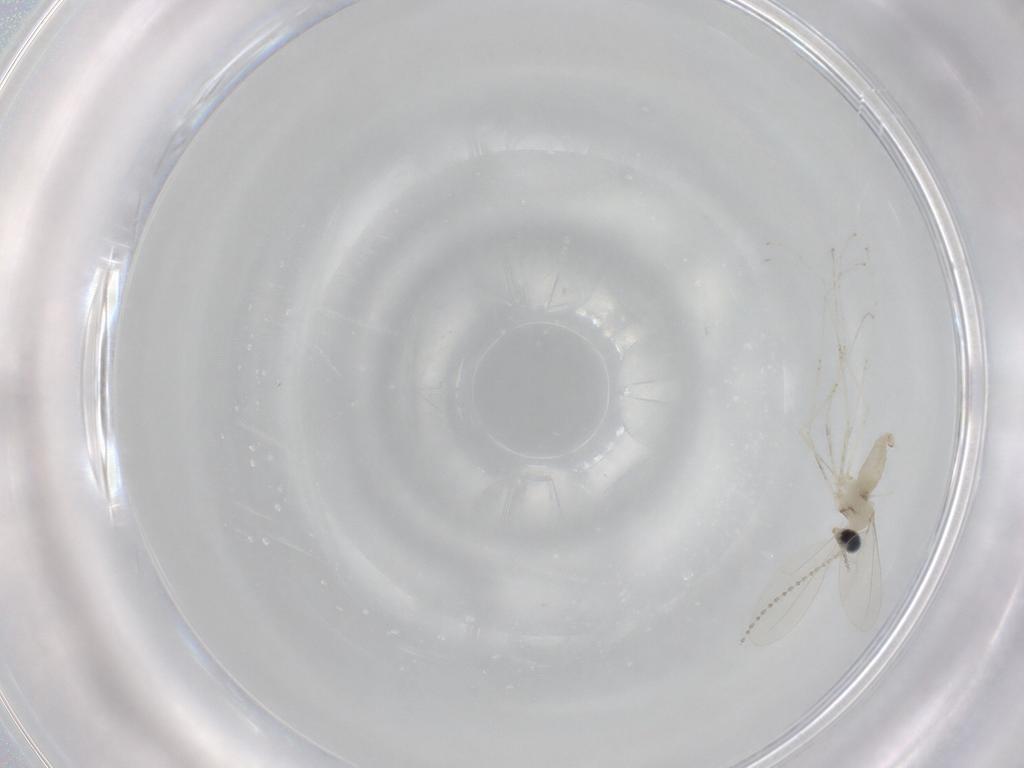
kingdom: Animalia
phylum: Arthropoda
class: Insecta
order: Diptera
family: Cecidomyiidae
